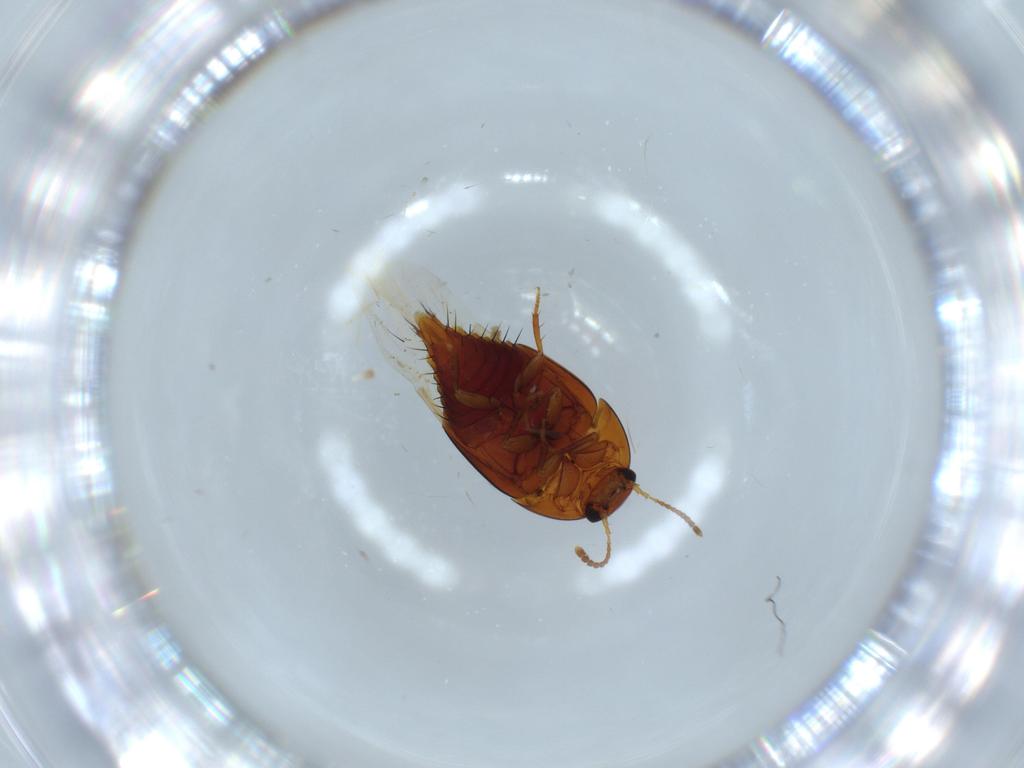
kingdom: Animalia
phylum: Arthropoda
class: Insecta
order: Coleoptera
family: Staphylinidae
